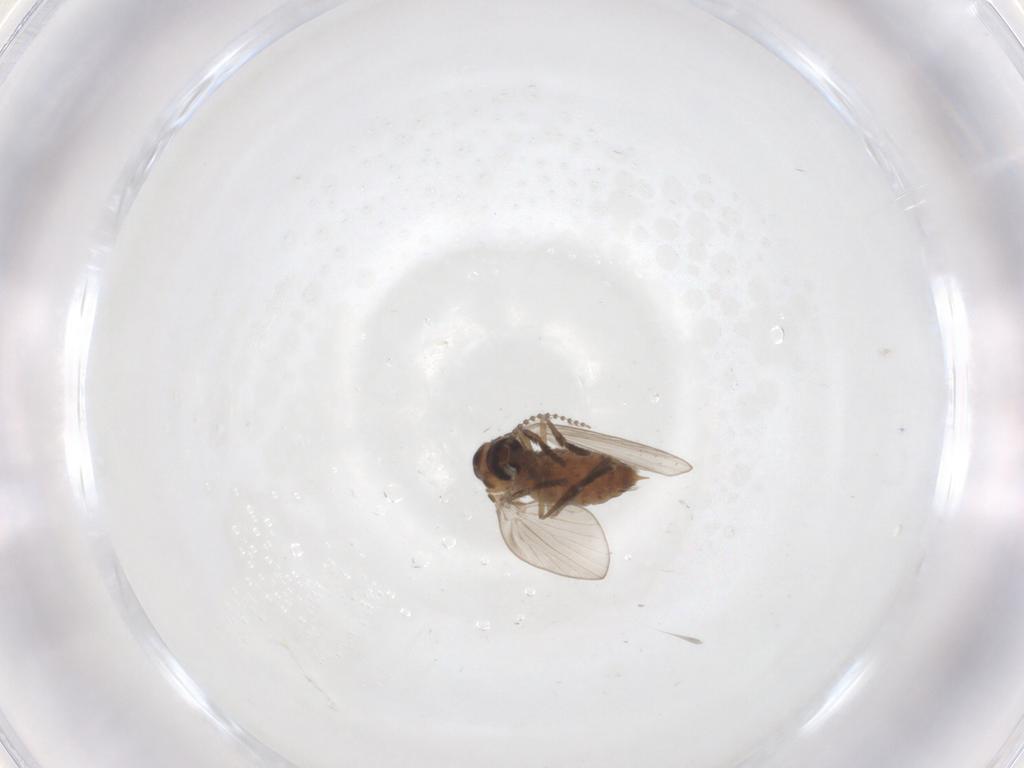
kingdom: Animalia
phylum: Arthropoda
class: Insecta
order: Diptera
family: Psychodidae
